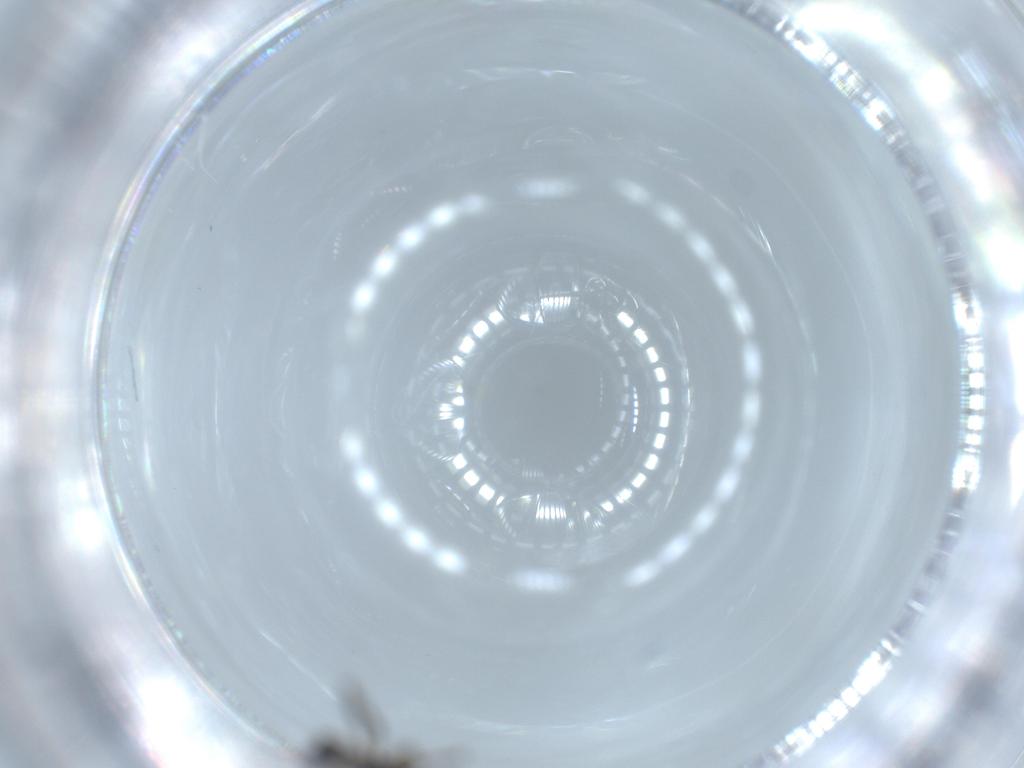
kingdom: Animalia
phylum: Arthropoda
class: Insecta
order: Diptera
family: Sciaridae
